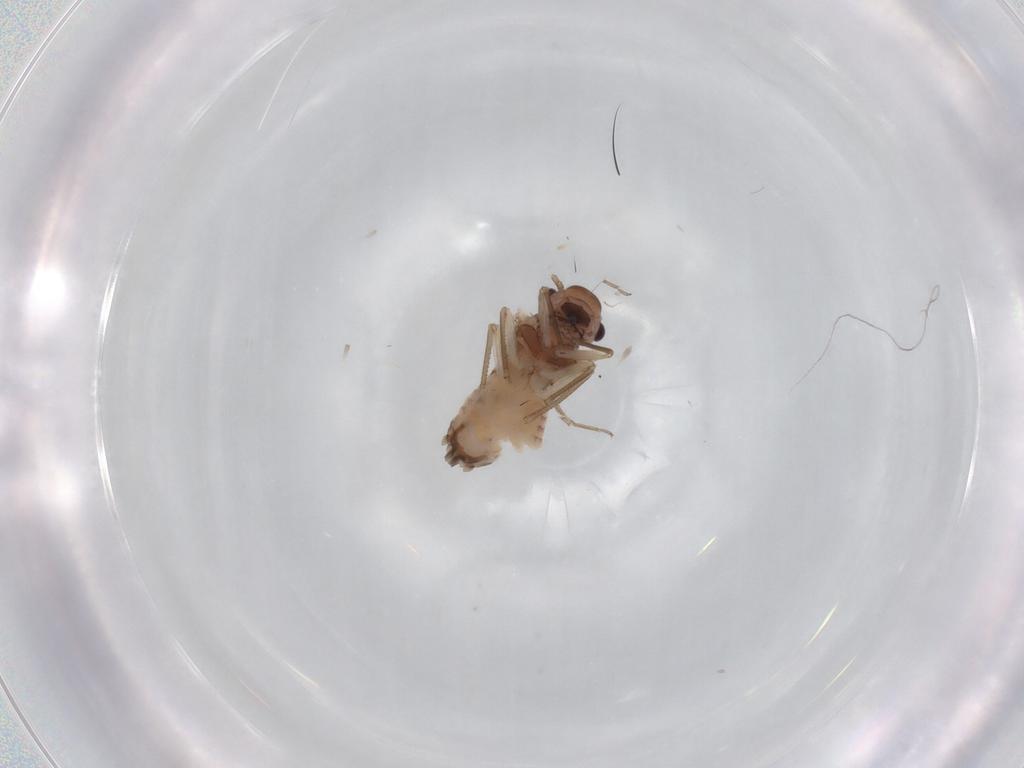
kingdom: Animalia
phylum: Arthropoda
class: Insecta
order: Psocodea
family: Peripsocidae
